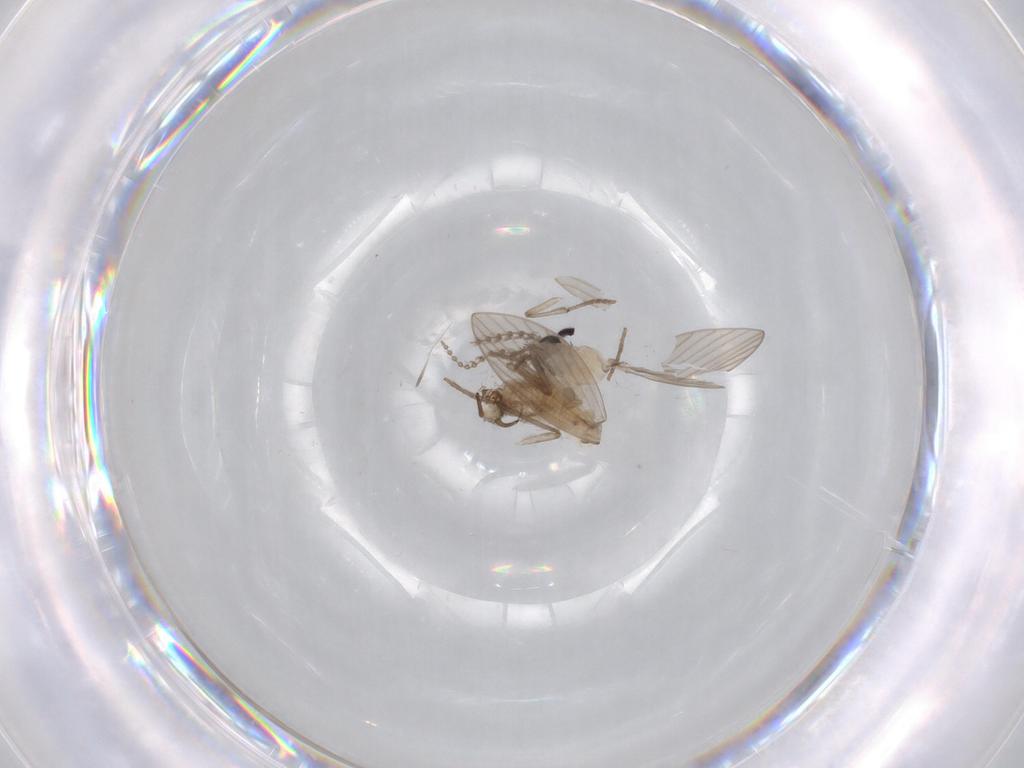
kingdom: Animalia
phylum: Arthropoda
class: Insecta
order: Diptera
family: Psychodidae
